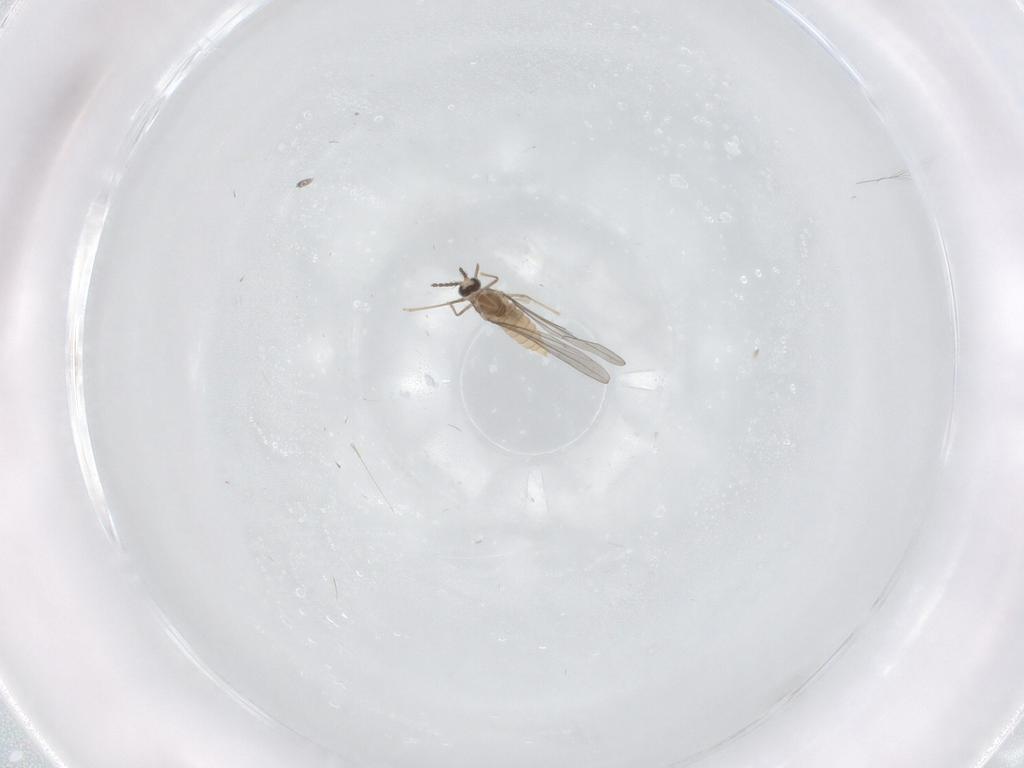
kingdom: Animalia
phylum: Arthropoda
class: Insecta
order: Diptera
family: Cecidomyiidae
